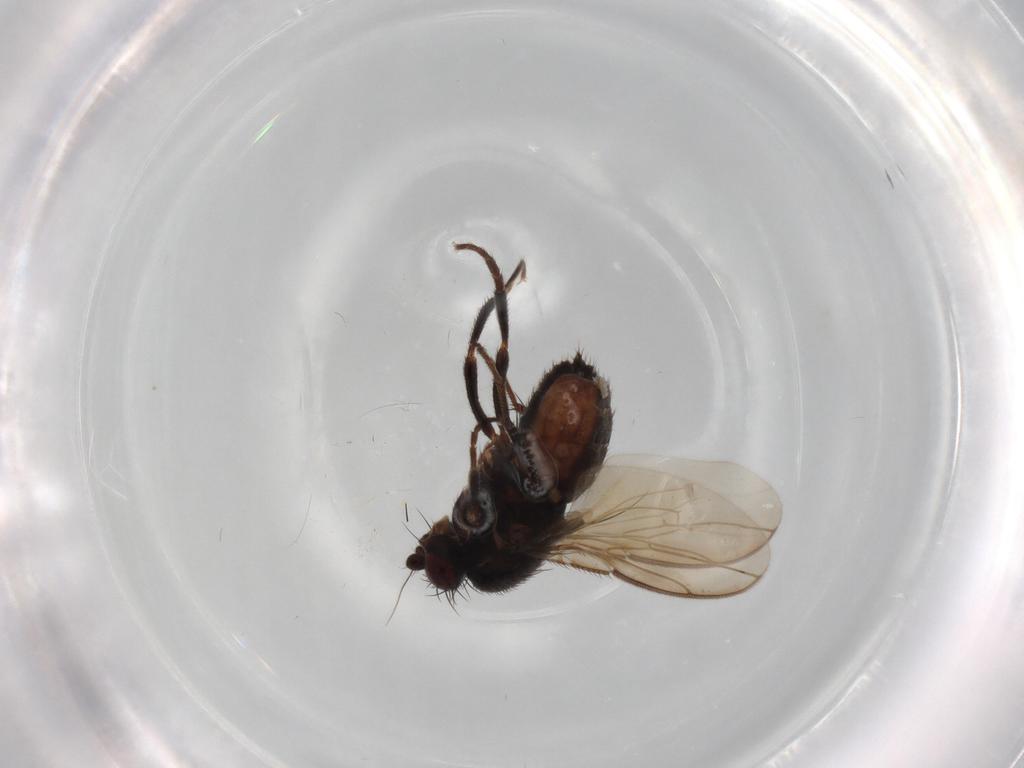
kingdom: Animalia
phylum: Arthropoda
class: Insecta
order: Diptera
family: Sphaeroceridae
